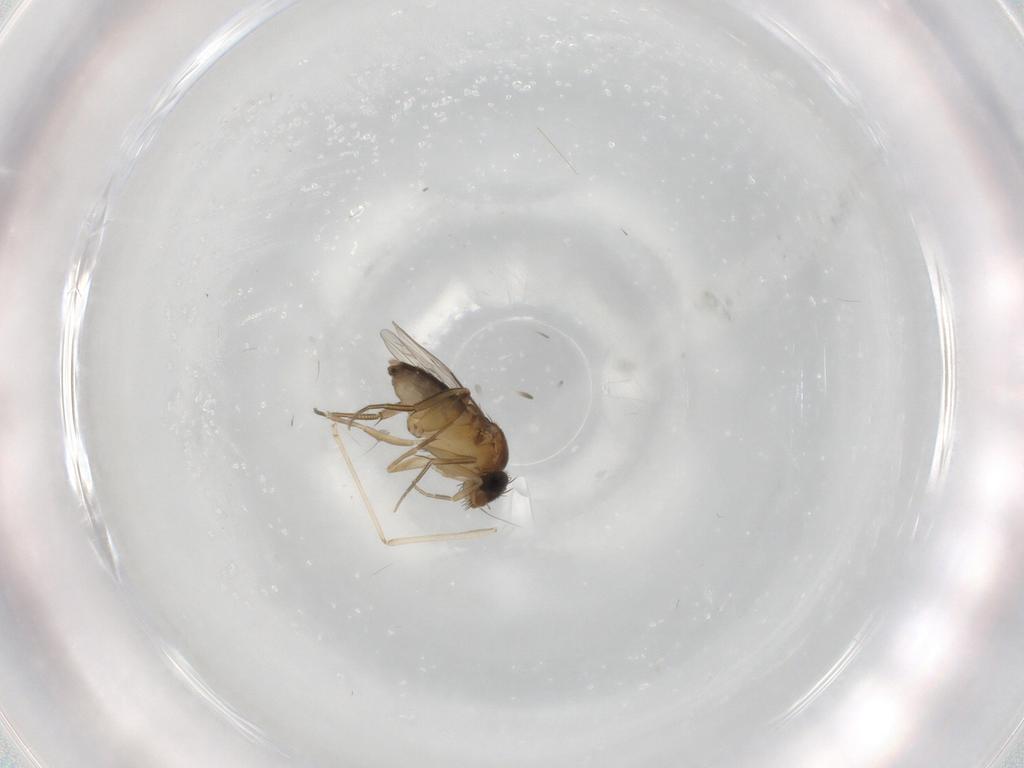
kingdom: Animalia
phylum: Arthropoda
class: Insecta
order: Diptera
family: Phoridae
